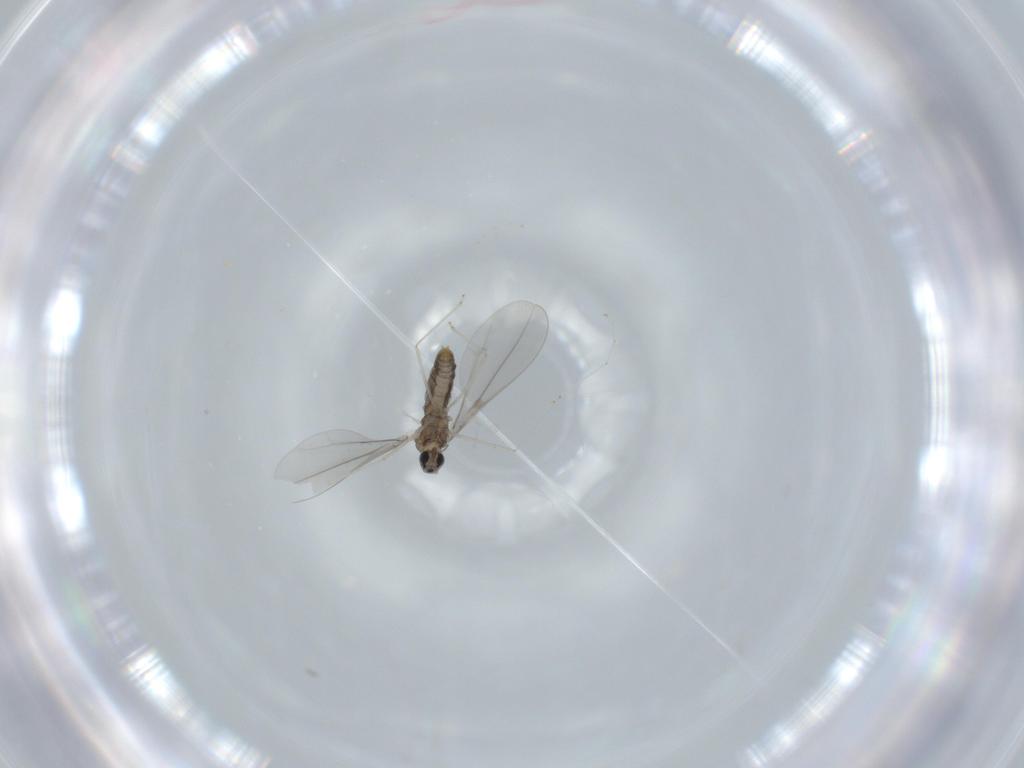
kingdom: Animalia
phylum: Arthropoda
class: Insecta
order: Diptera
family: Cecidomyiidae
